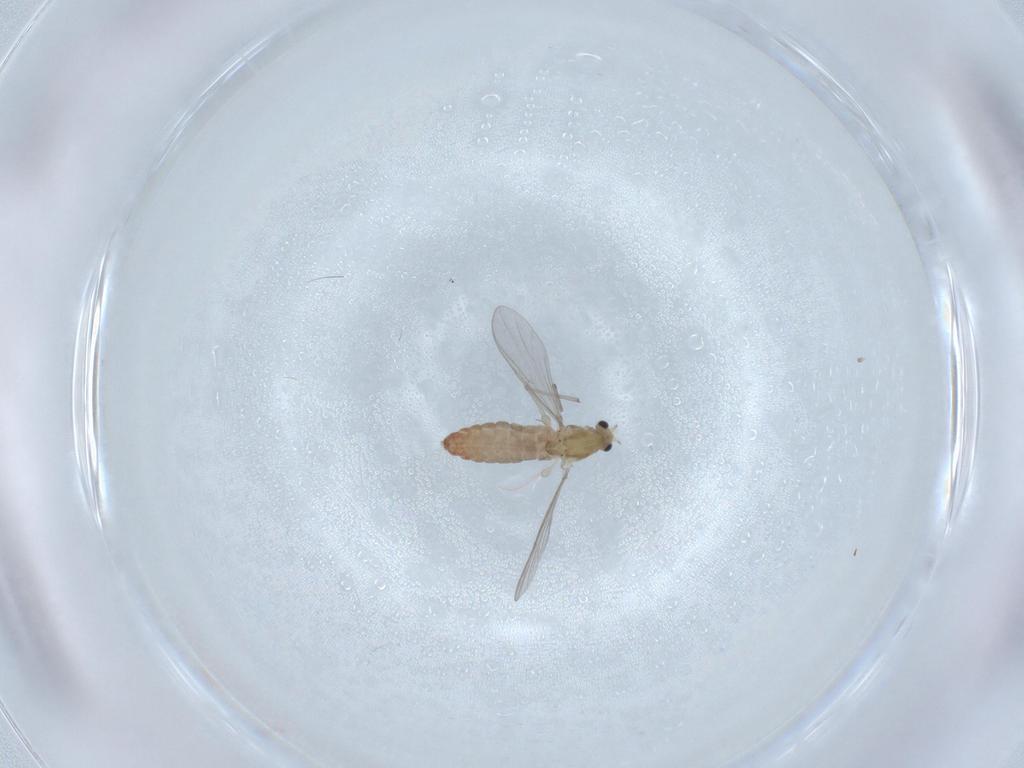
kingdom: Animalia
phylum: Arthropoda
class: Insecta
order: Diptera
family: Chironomidae
